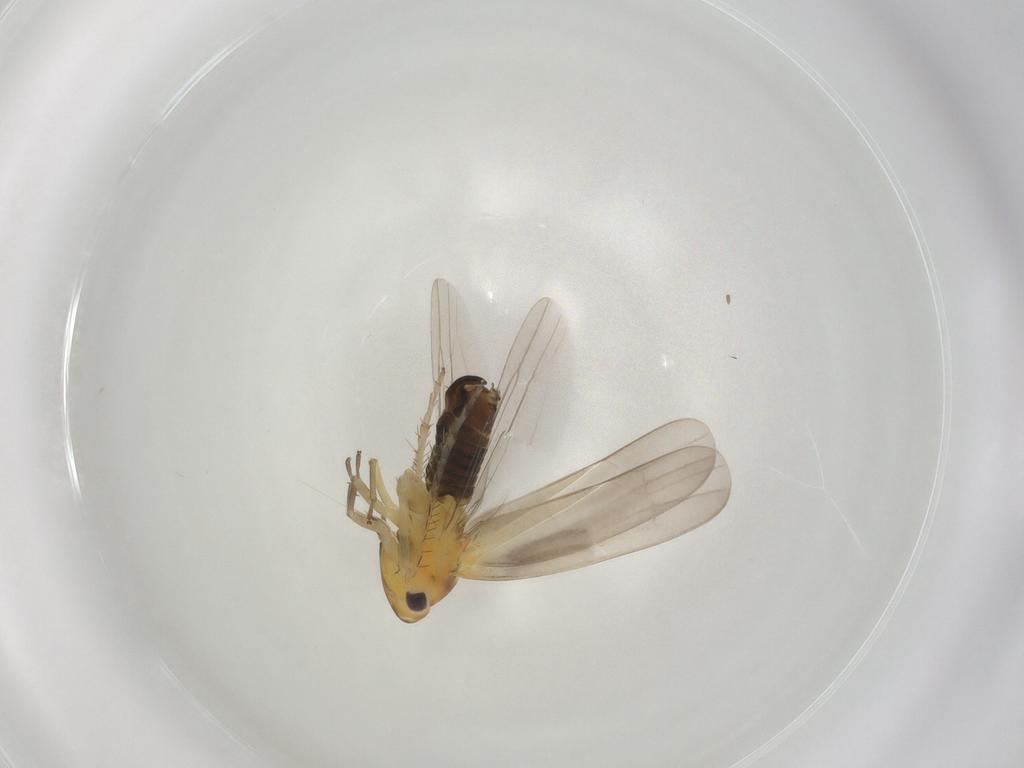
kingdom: Animalia
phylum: Arthropoda
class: Insecta
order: Hemiptera
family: Cicadellidae
